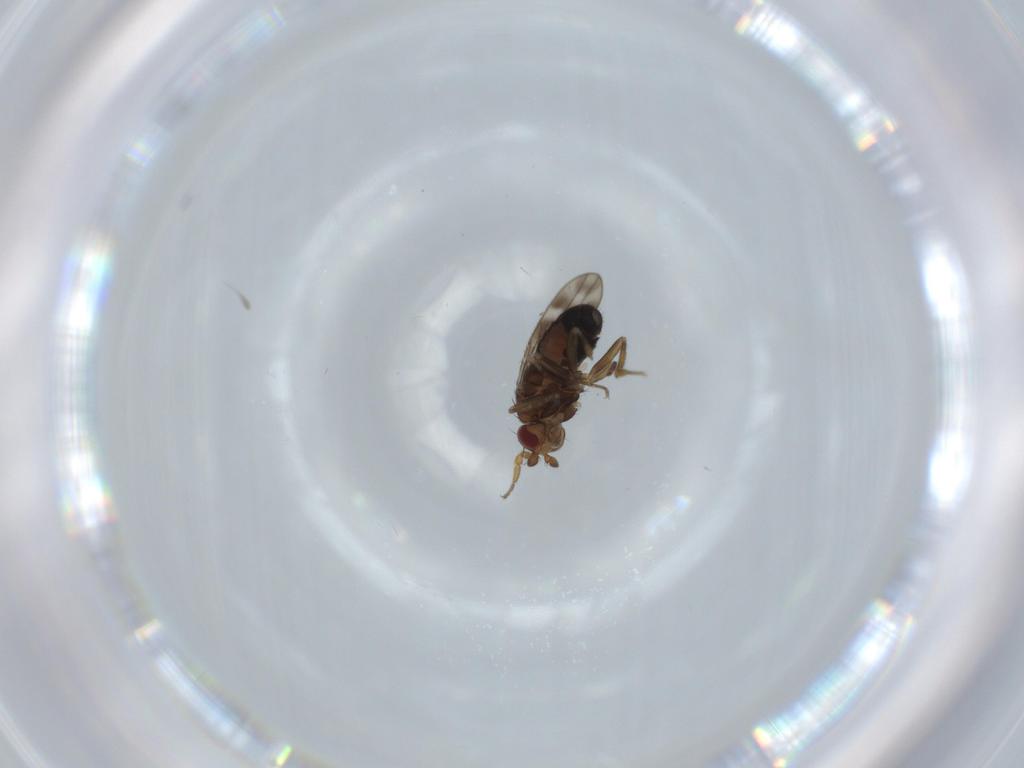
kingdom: Animalia
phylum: Arthropoda
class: Insecta
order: Diptera
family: Sphaeroceridae
